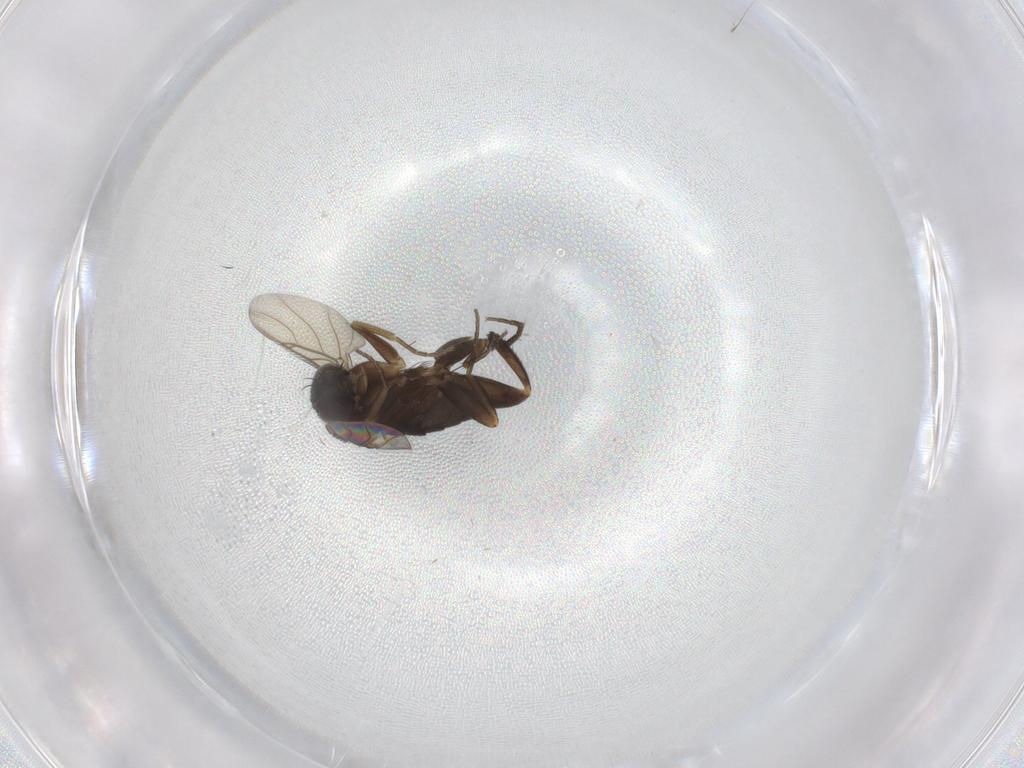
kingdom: Animalia
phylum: Arthropoda
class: Insecta
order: Diptera
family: Phoridae
